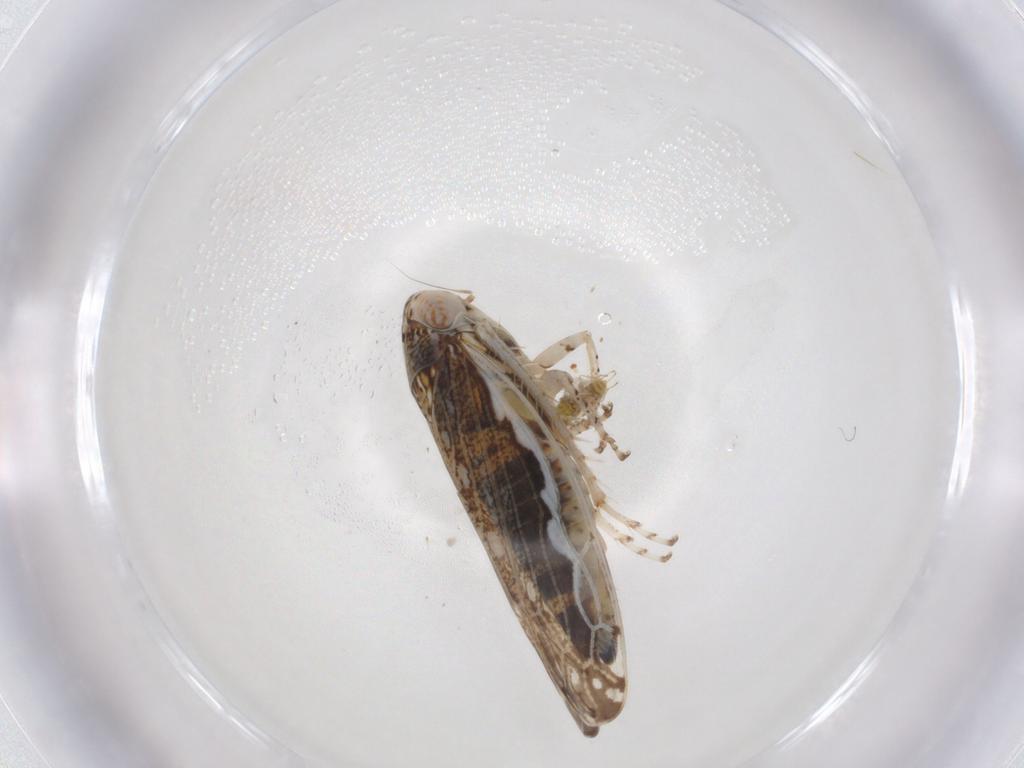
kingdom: Animalia
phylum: Arthropoda
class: Insecta
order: Hemiptera
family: Cicadellidae
